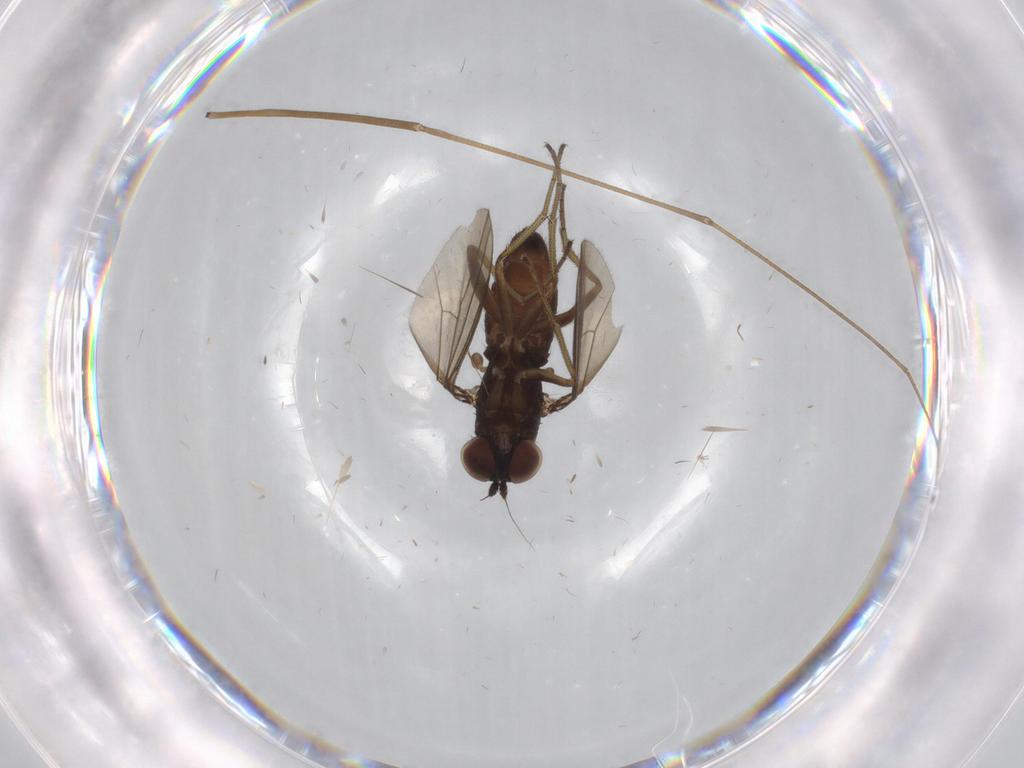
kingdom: Animalia
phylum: Arthropoda
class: Insecta
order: Diptera
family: Dolichopodidae
